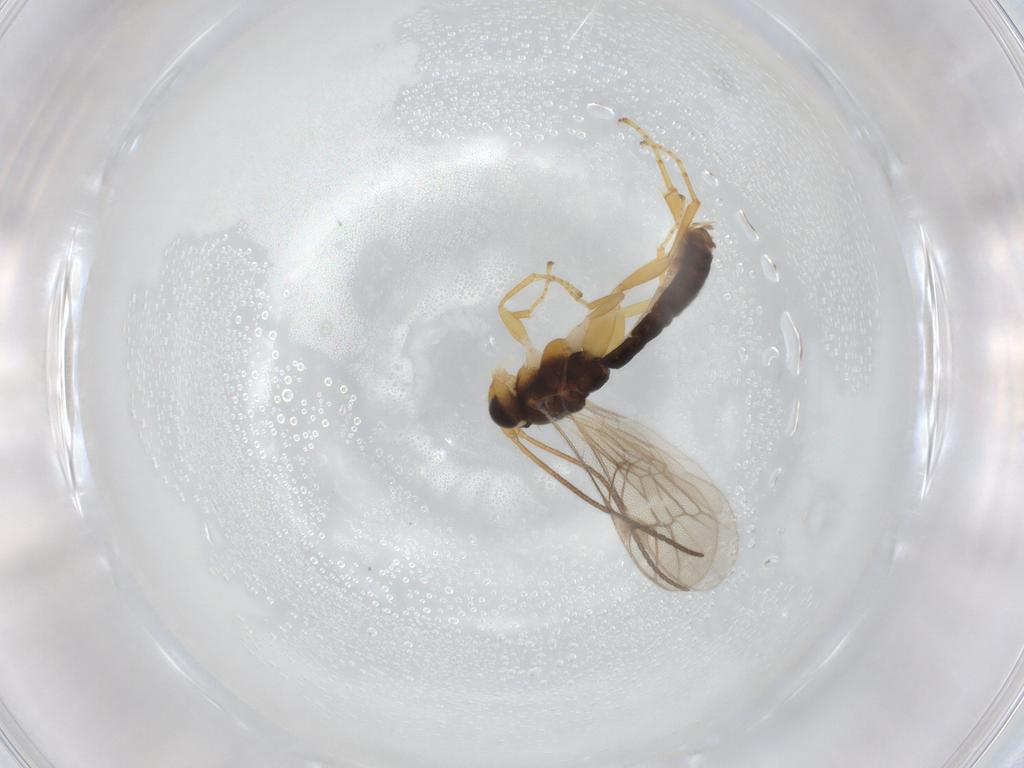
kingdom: Animalia
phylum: Arthropoda
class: Insecta
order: Hymenoptera
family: Ichneumonidae
